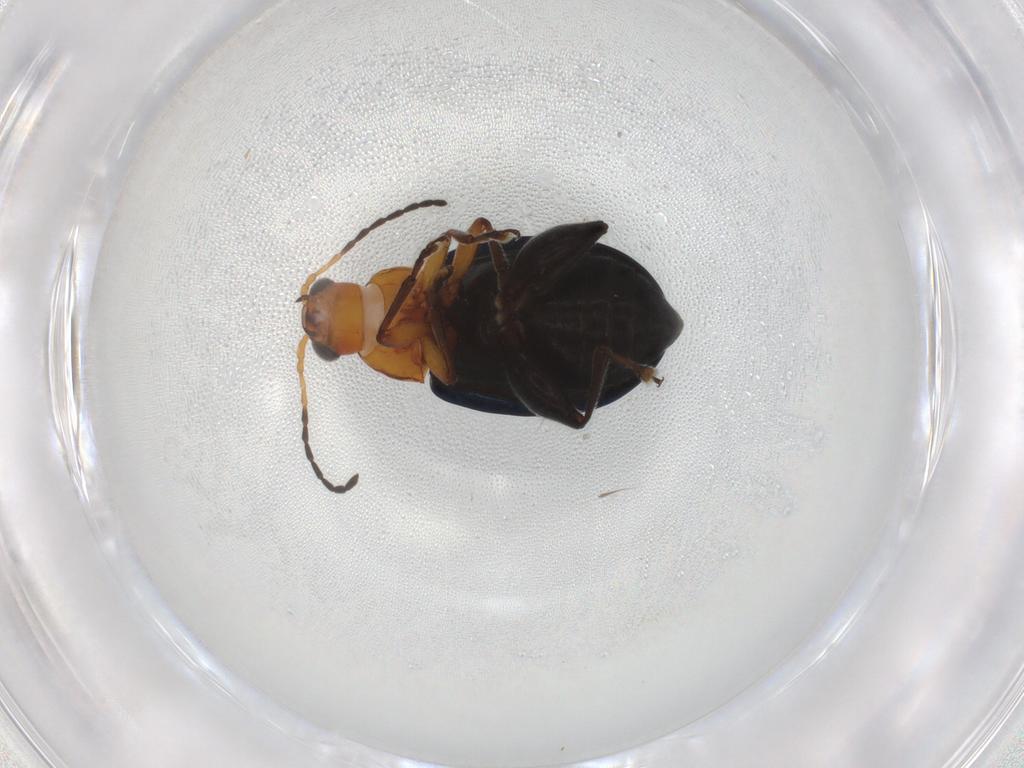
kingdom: Animalia
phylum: Arthropoda
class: Insecta
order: Coleoptera
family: Chrysomelidae
